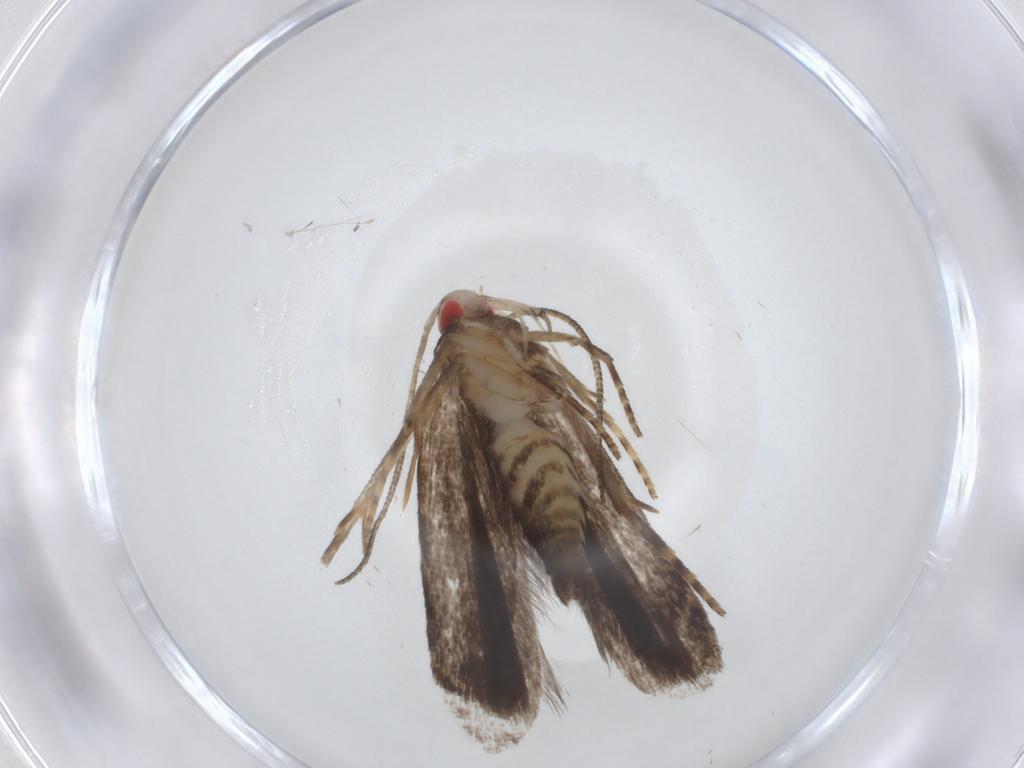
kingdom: Animalia
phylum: Arthropoda
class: Insecta
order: Lepidoptera
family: Gelechiidae
